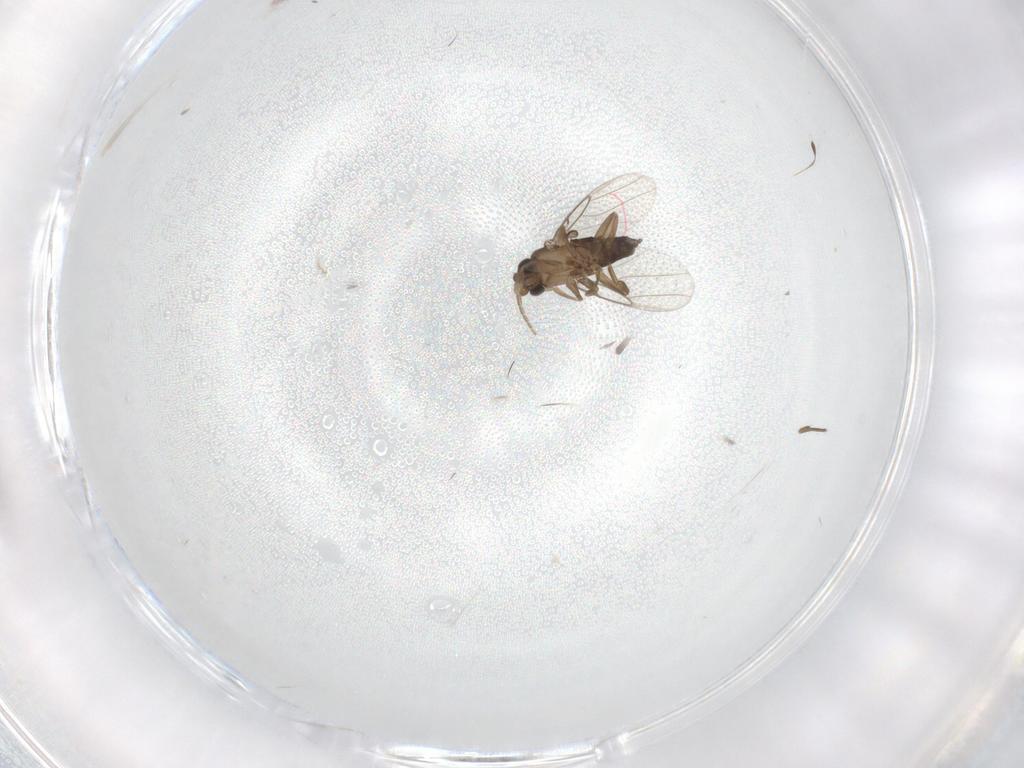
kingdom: Animalia
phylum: Arthropoda
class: Insecta
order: Diptera
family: Phoridae
